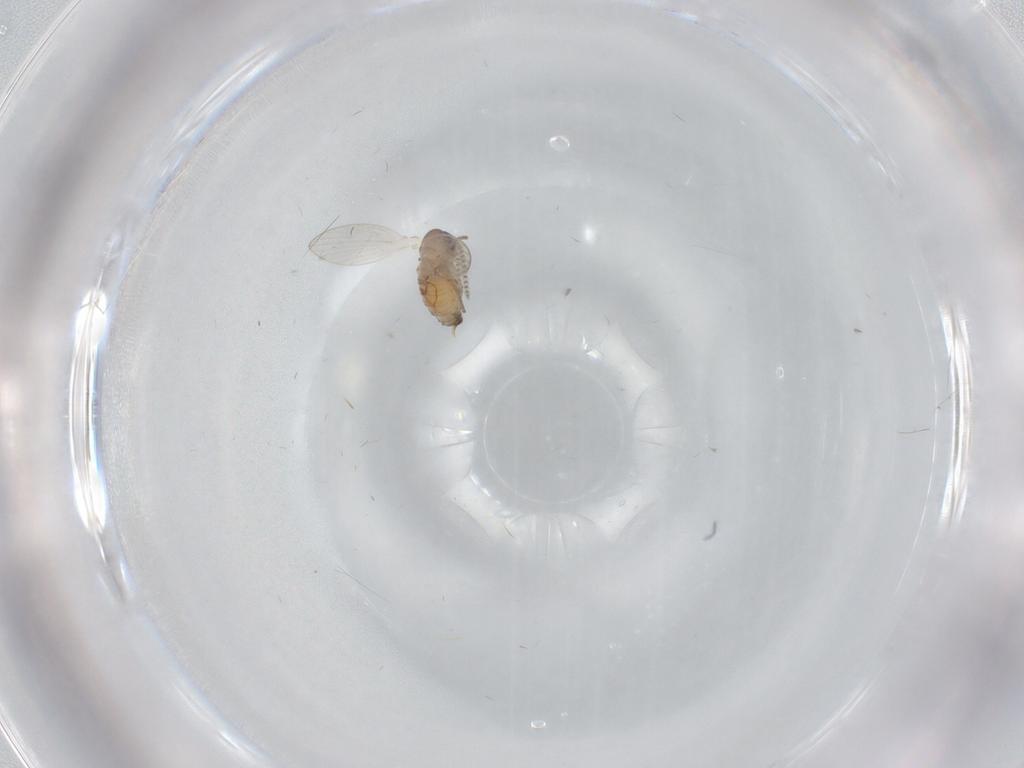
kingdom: Animalia
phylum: Arthropoda
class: Insecta
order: Diptera
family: Psychodidae
